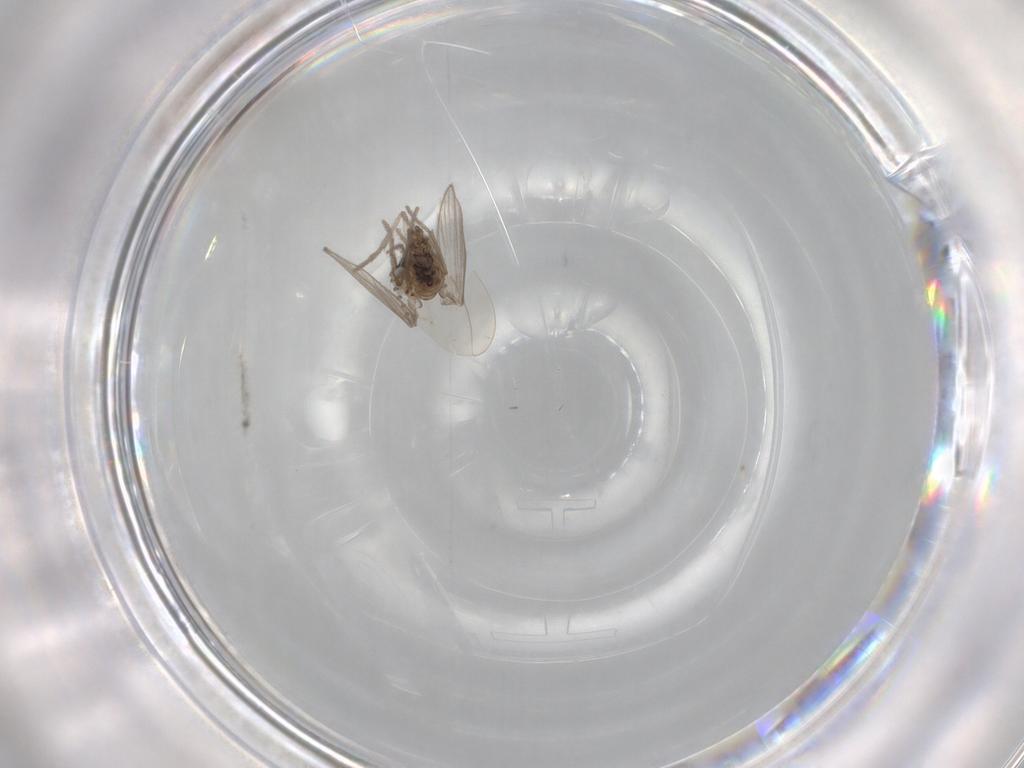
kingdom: Animalia
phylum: Arthropoda
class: Insecta
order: Diptera
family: Psychodidae
